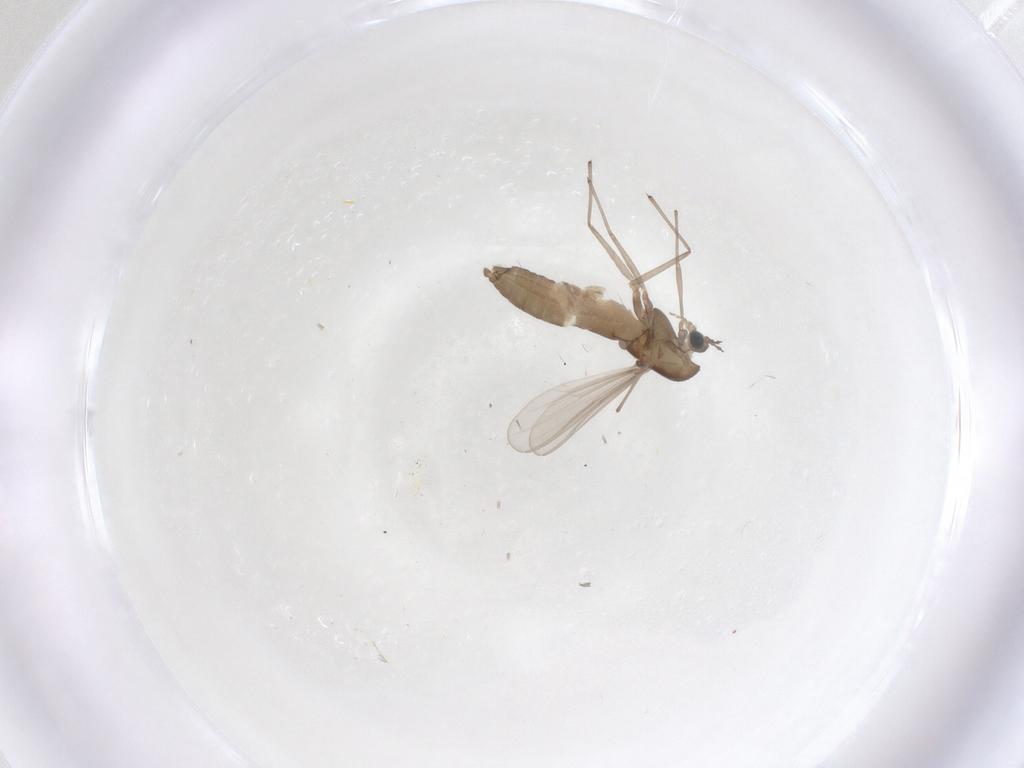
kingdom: Animalia
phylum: Arthropoda
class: Insecta
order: Diptera
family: Chironomidae
